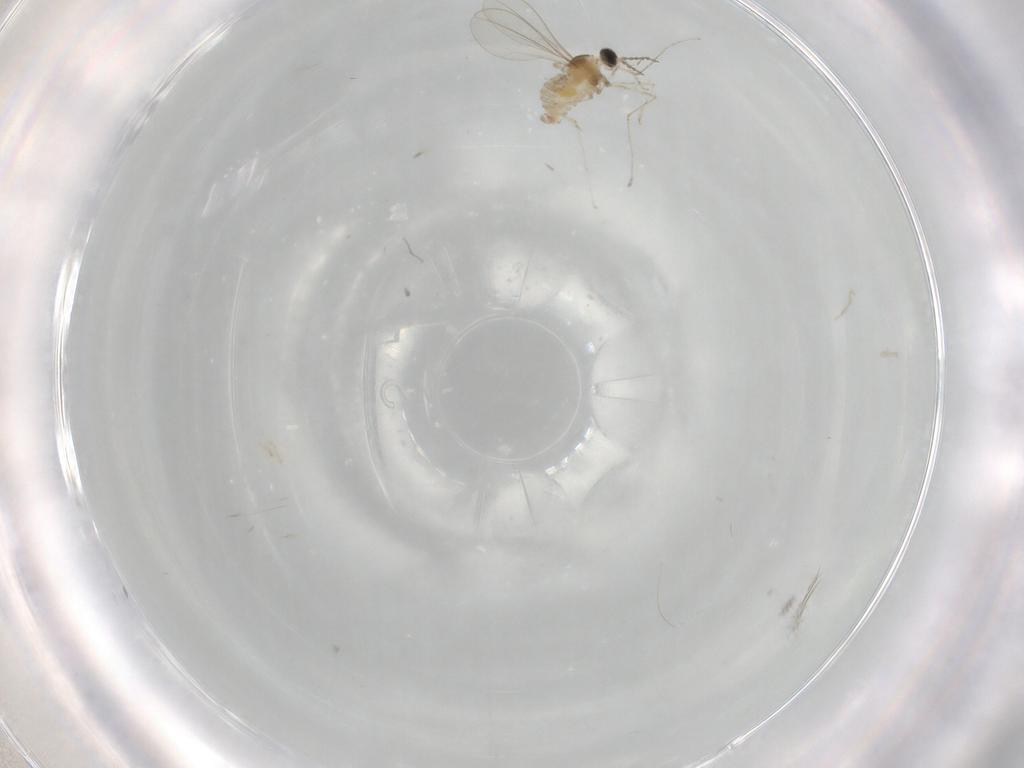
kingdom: Animalia
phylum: Arthropoda
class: Insecta
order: Diptera
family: Ceratopogonidae
